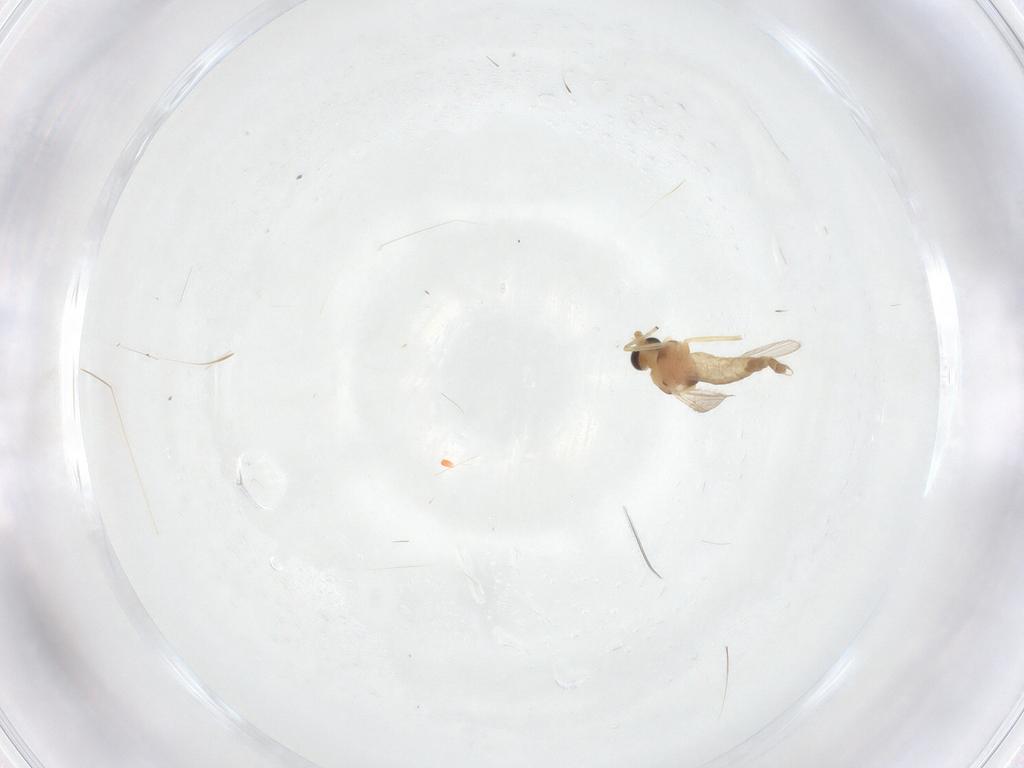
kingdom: Animalia
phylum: Arthropoda
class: Insecta
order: Diptera
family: Chironomidae
